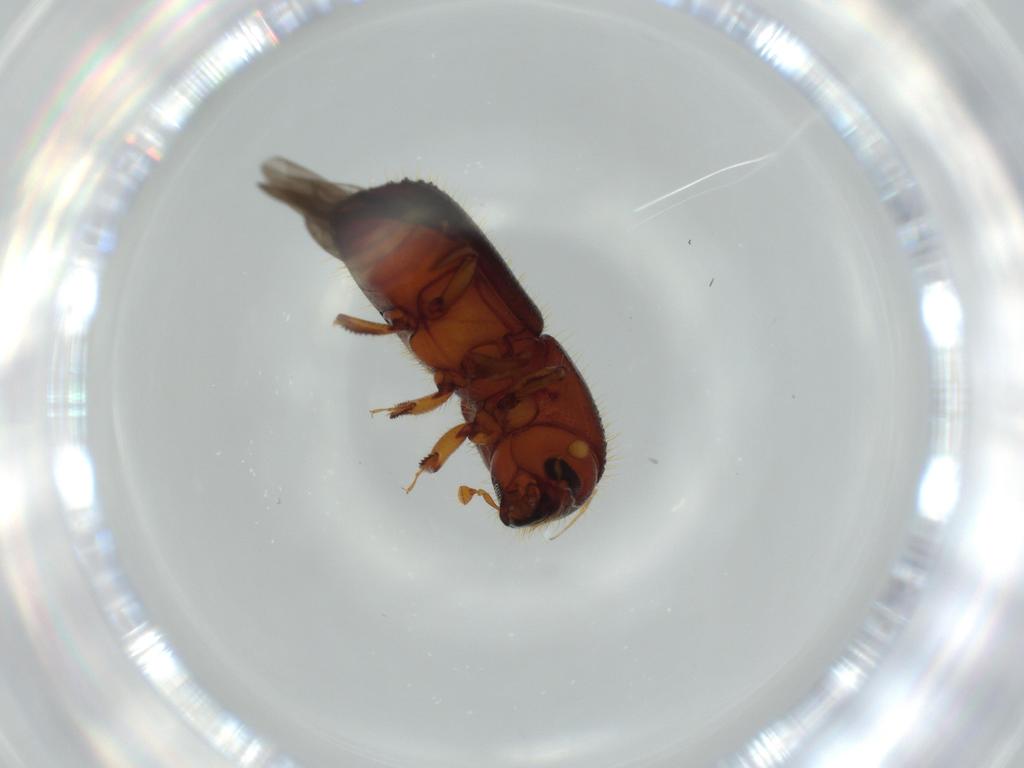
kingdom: Animalia
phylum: Arthropoda
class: Insecta
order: Coleoptera
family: Curculionidae
